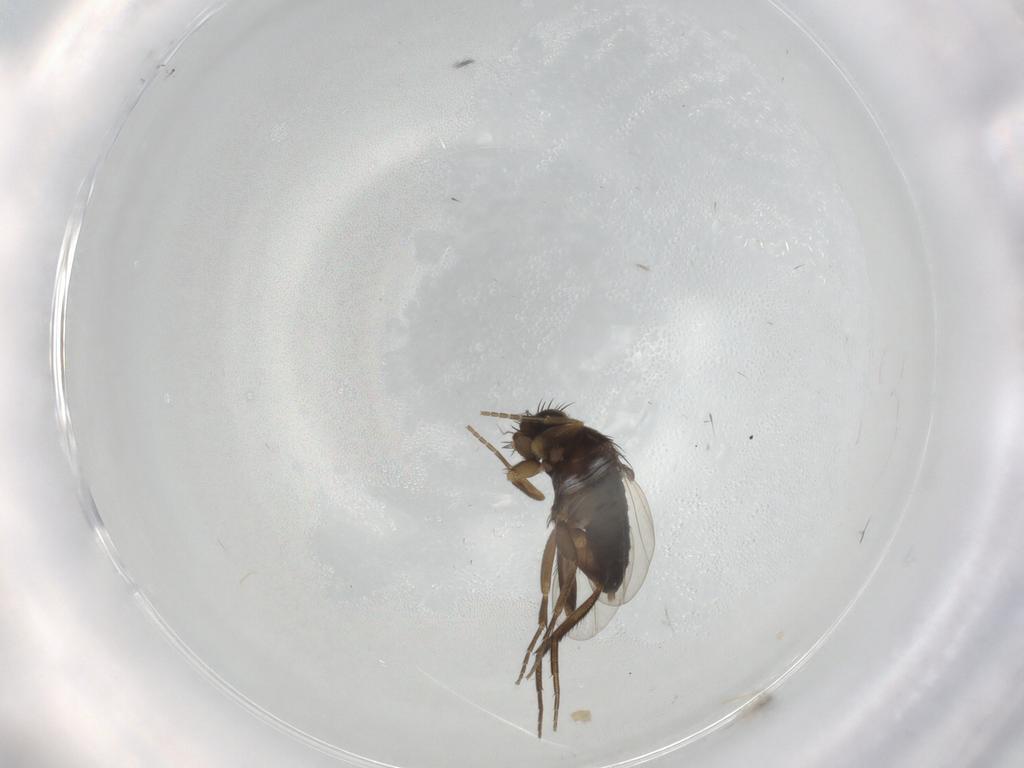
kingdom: Animalia
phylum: Arthropoda
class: Insecta
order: Diptera
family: Phoridae
